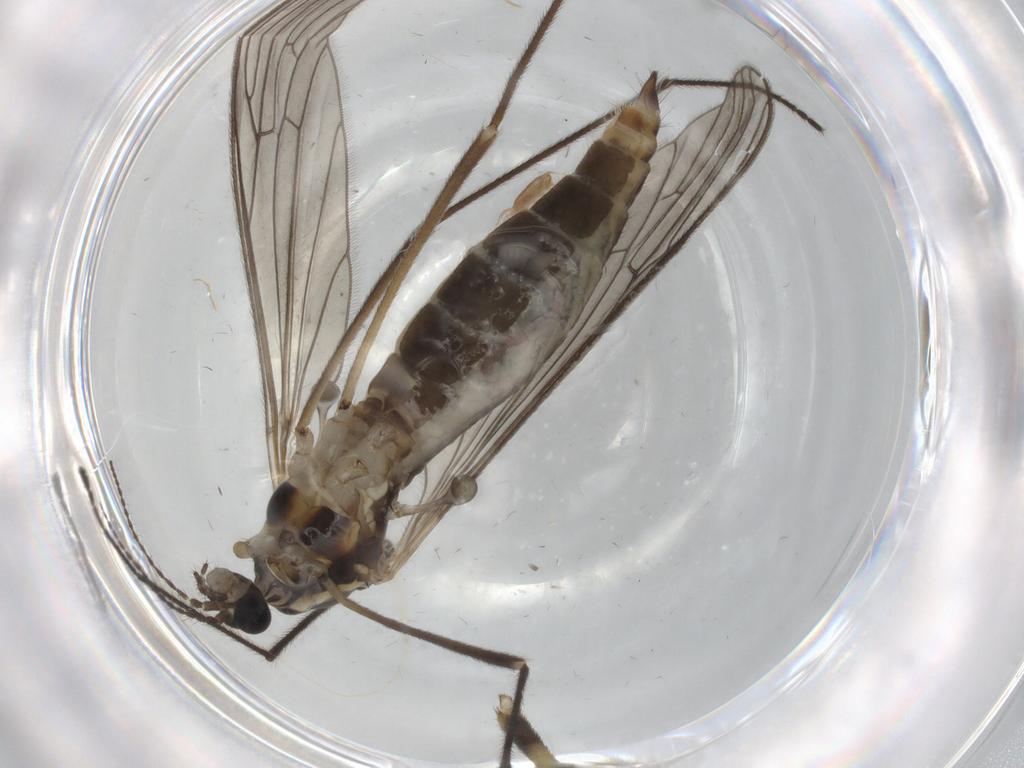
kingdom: Animalia
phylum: Arthropoda
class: Insecta
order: Diptera
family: Limoniidae
